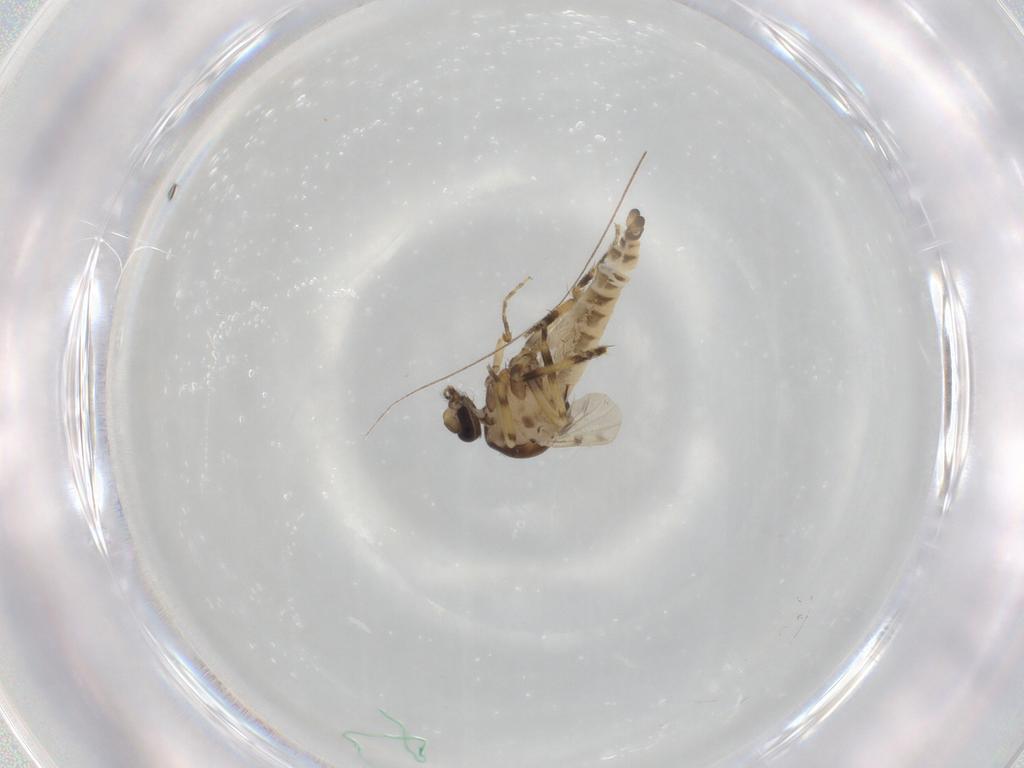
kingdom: Animalia
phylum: Arthropoda
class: Insecta
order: Diptera
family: Ceratopogonidae
